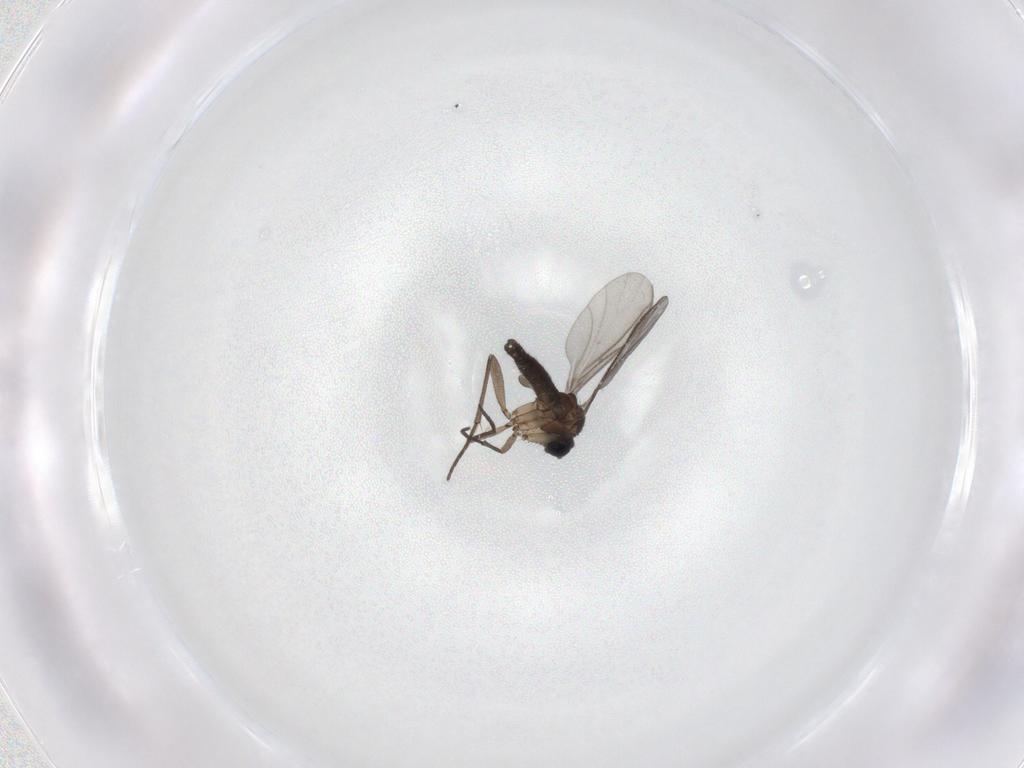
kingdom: Animalia
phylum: Arthropoda
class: Insecta
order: Diptera
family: Sciaridae
